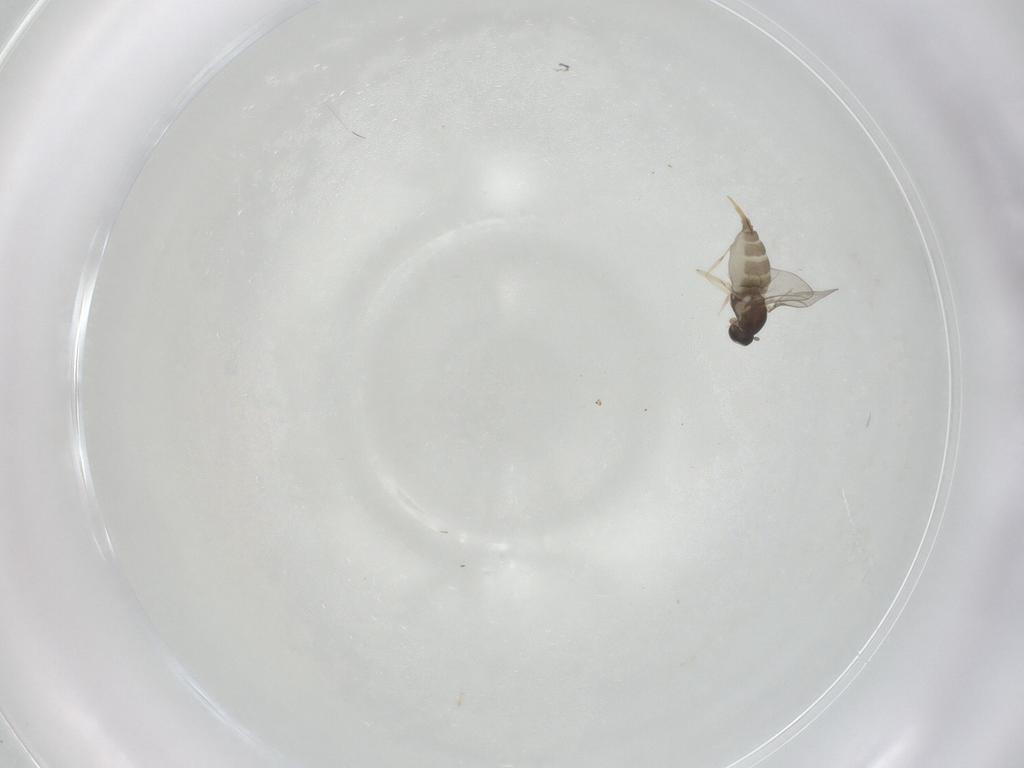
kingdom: Animalia
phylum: Arthropoda
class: Insecta
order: Diptera
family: Cecidomyiidae
